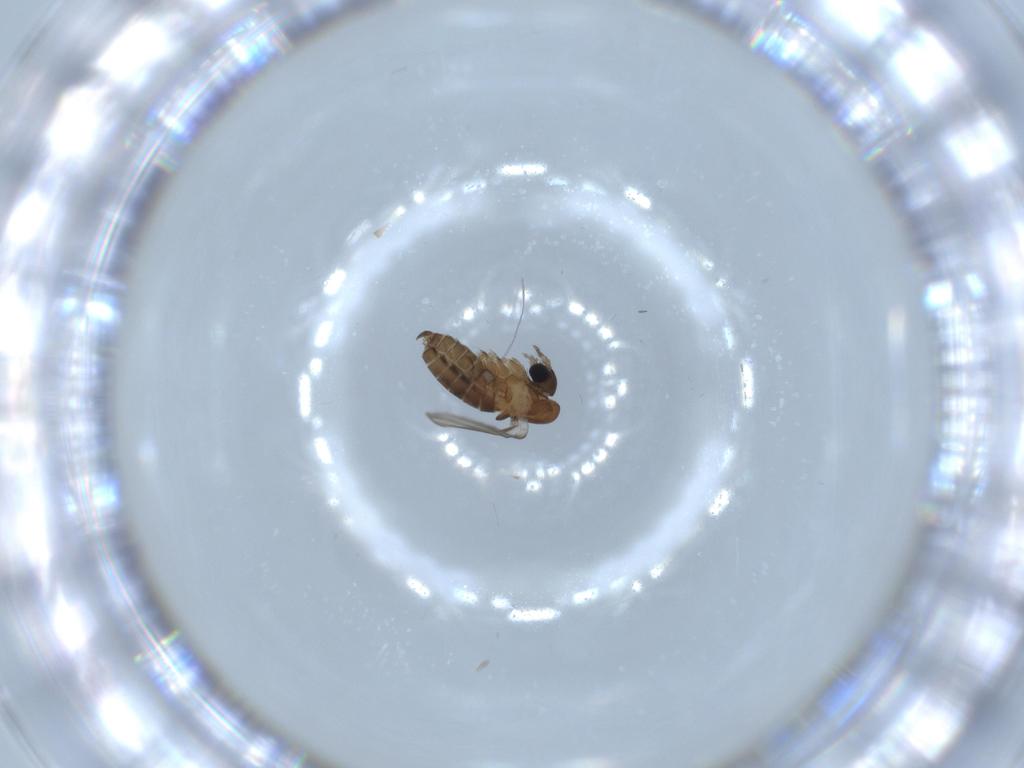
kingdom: Animalia
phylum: Arthropoda
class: Insecta
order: Diptera
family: Psychodidae
